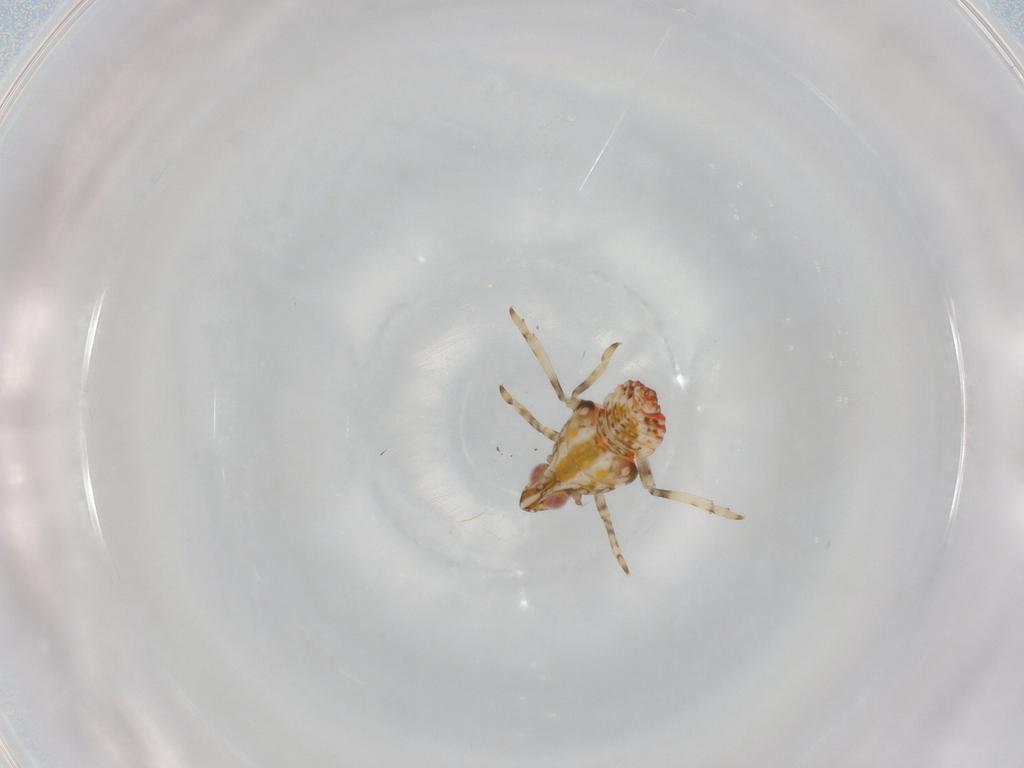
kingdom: Animalia
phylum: Arthropoda
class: Insecta
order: Hemiptera
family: Tropiduchidae
